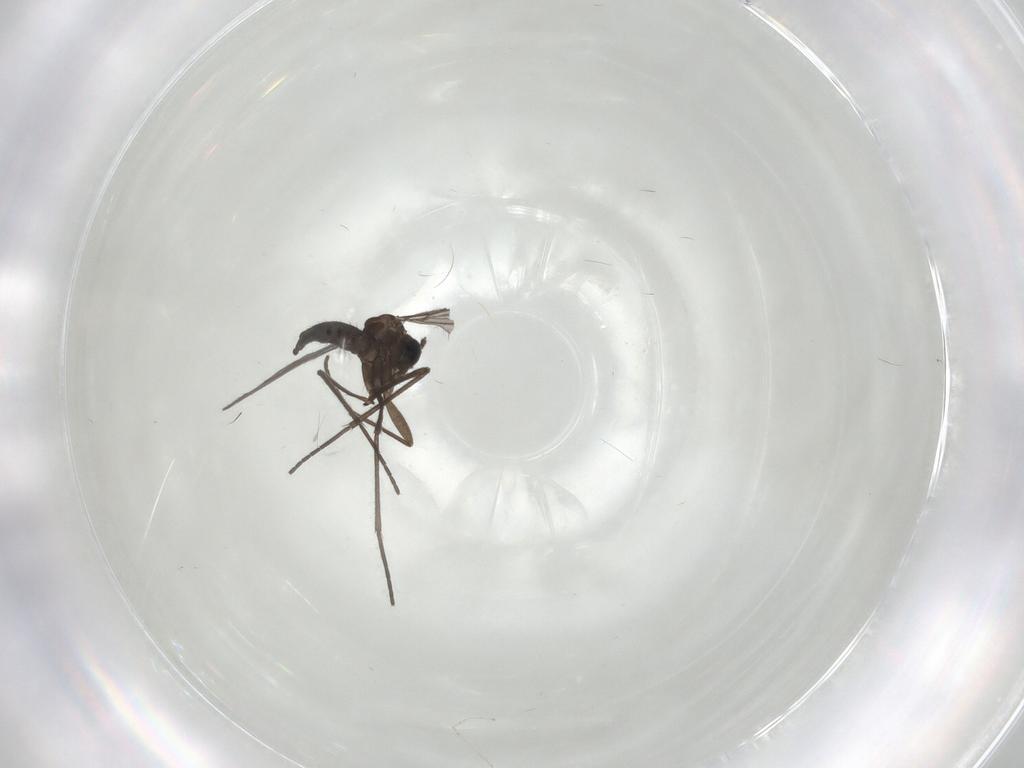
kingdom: Animalia
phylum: Arthropoda
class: Insecta
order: Diptera
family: Sciaridae
